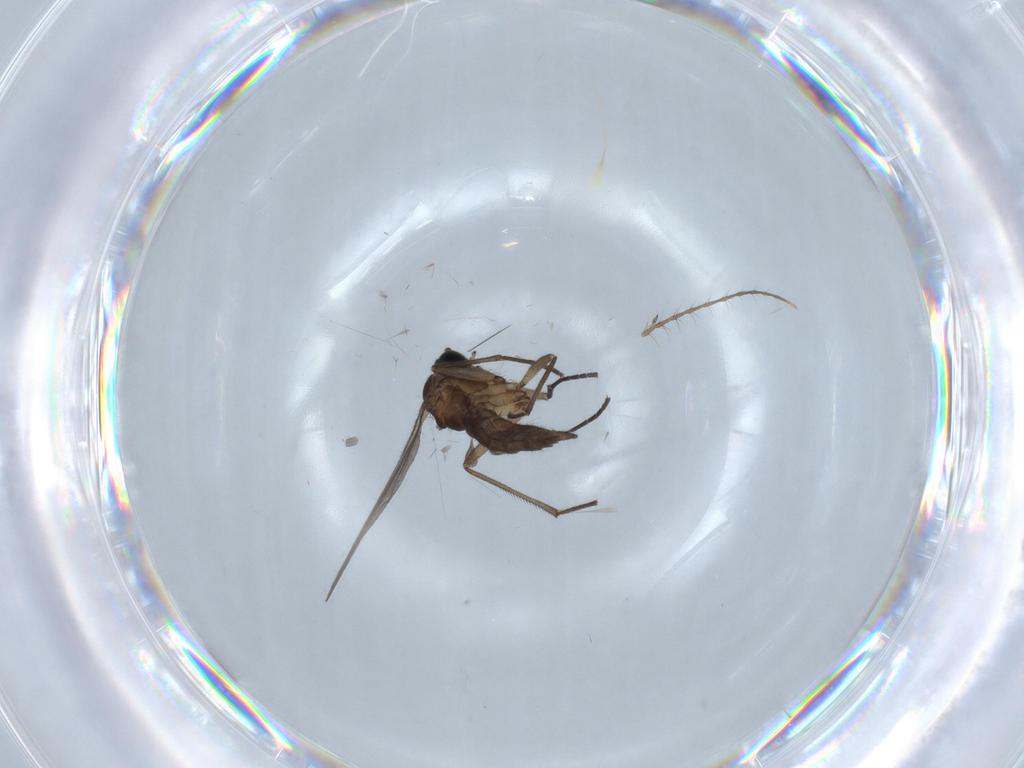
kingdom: Animalia
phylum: Arthropoda
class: Insecta
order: Diptera
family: Sciaridae
